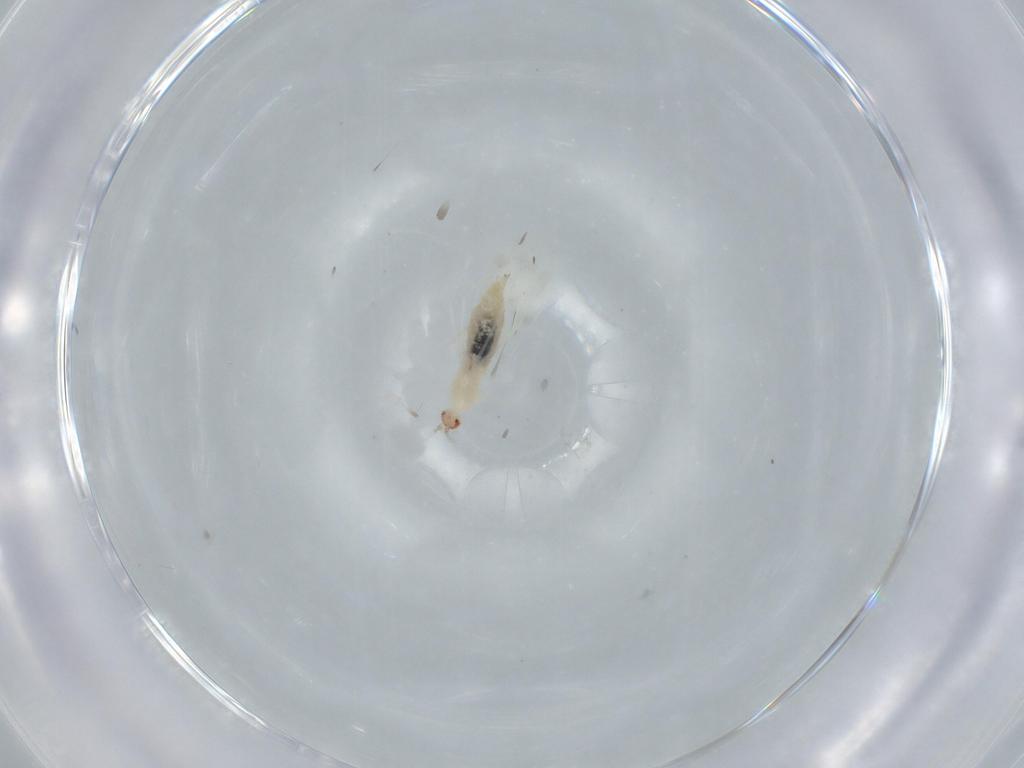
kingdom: Animalia
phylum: Arthropoda
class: Insecta
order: Diptera
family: Cecidomyiidae
